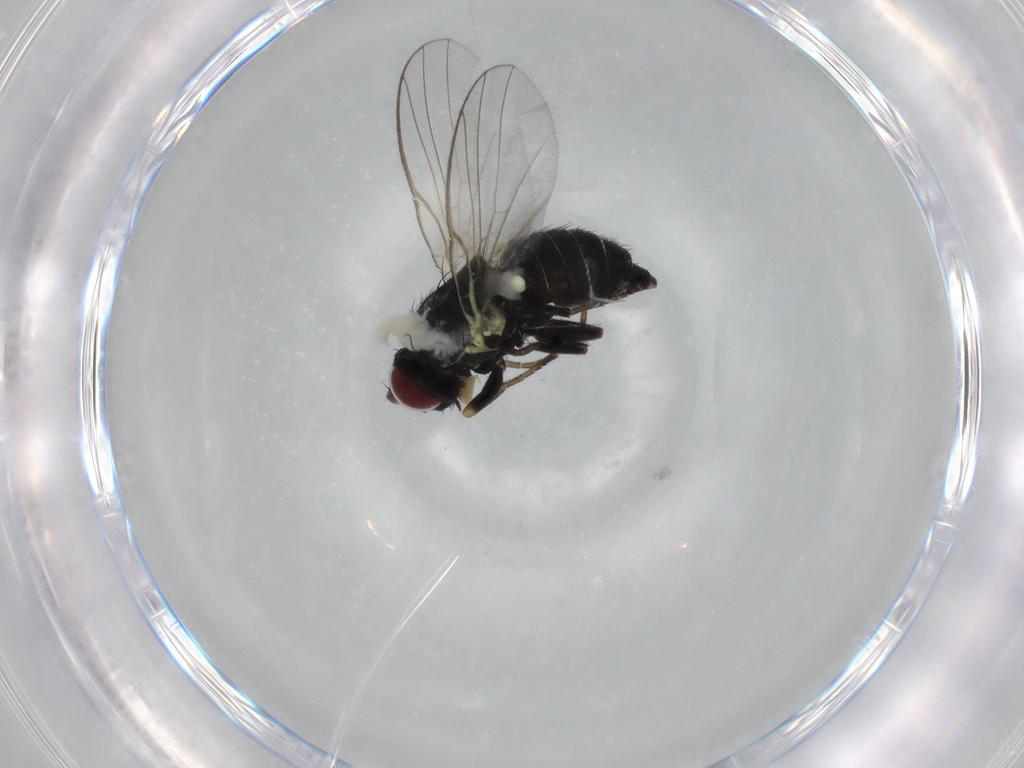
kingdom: Animalia
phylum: Arthropoda
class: Insecta
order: Diptera
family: Agromyzidae
